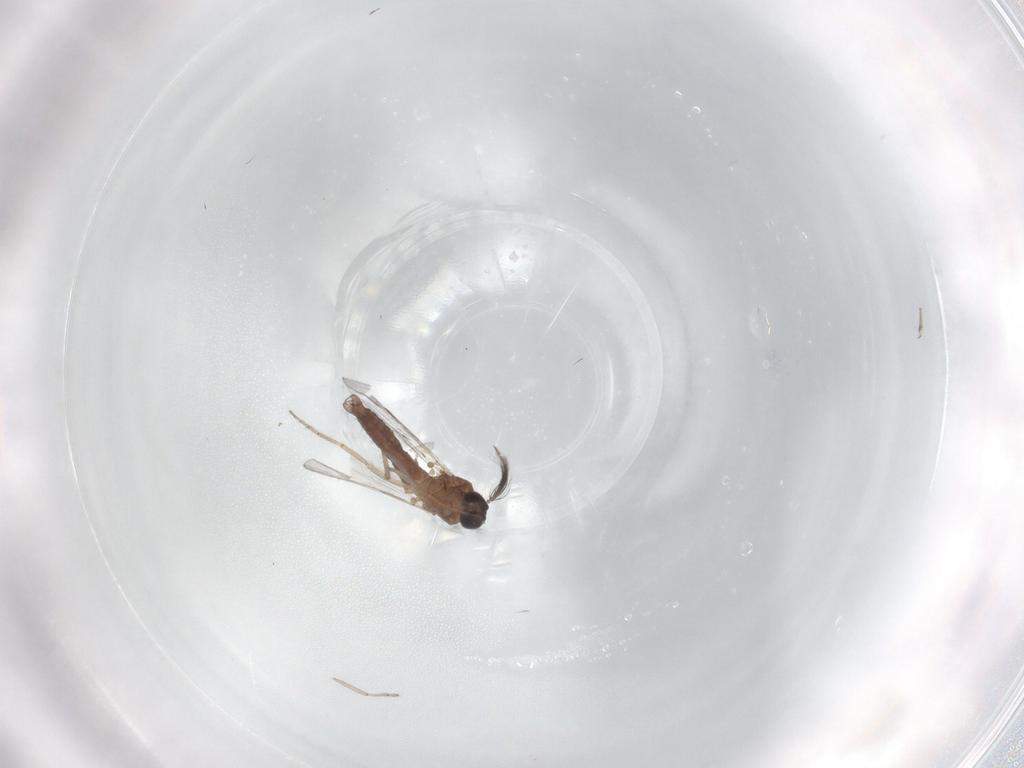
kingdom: Animalia
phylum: Arthropoda
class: Insecta
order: Diptera
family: Ceratopogonidae
